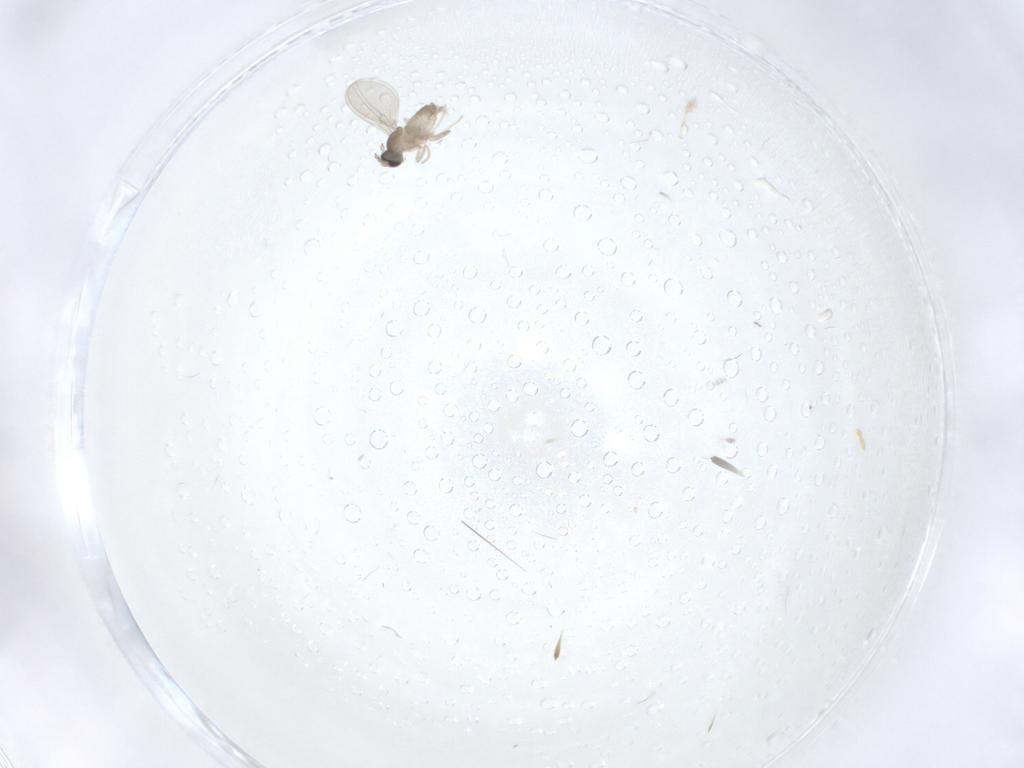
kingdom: Animalia
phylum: Arthropoda
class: Insecta
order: Diptera
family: Cecidomyiidae
